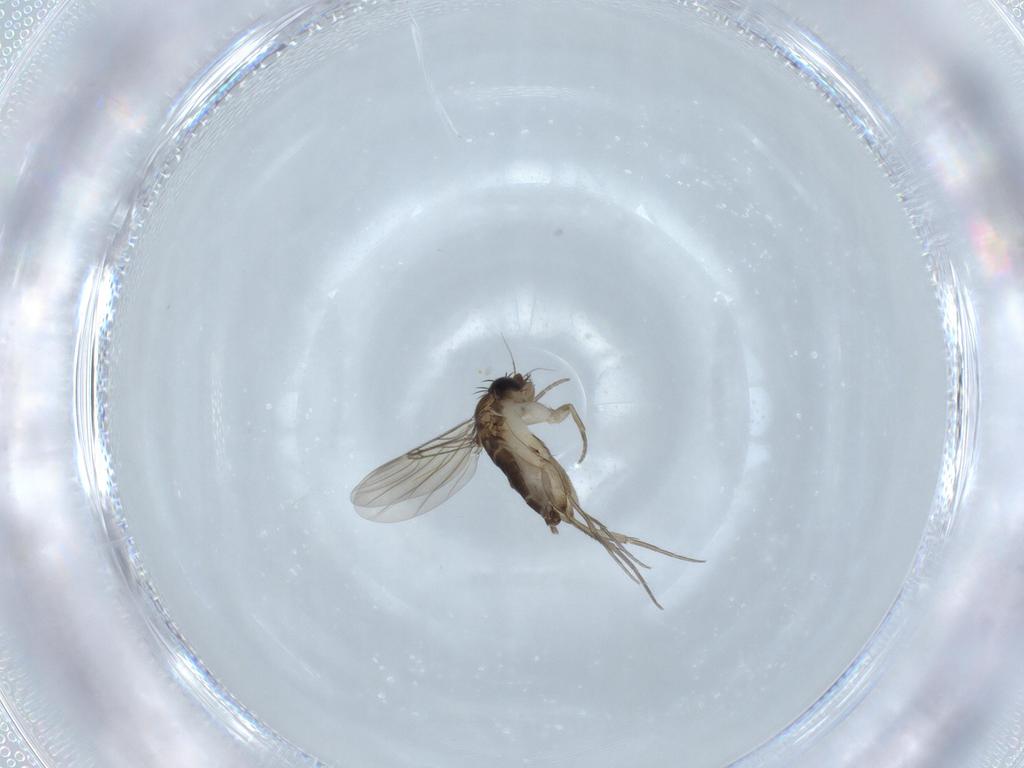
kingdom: Animalia
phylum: Arthropoda
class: Insecta
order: Diptera
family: Phoridae
